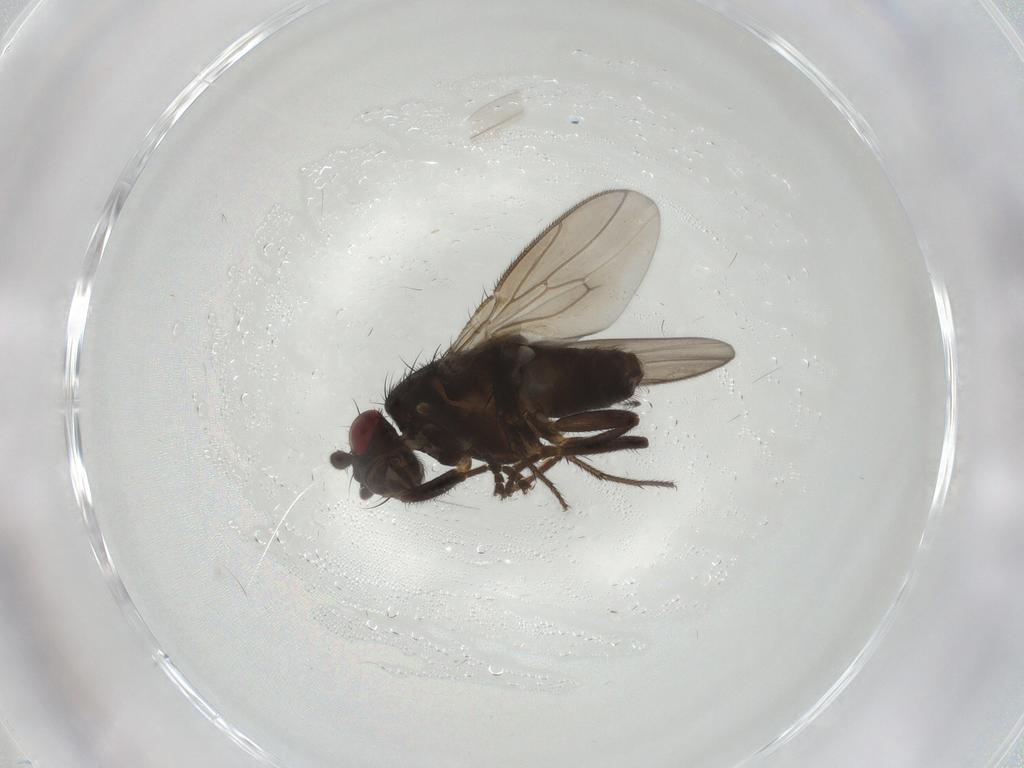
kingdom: Animalia
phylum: Arthropoda
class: Insecta
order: Diptera
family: Sphaeroceridae
